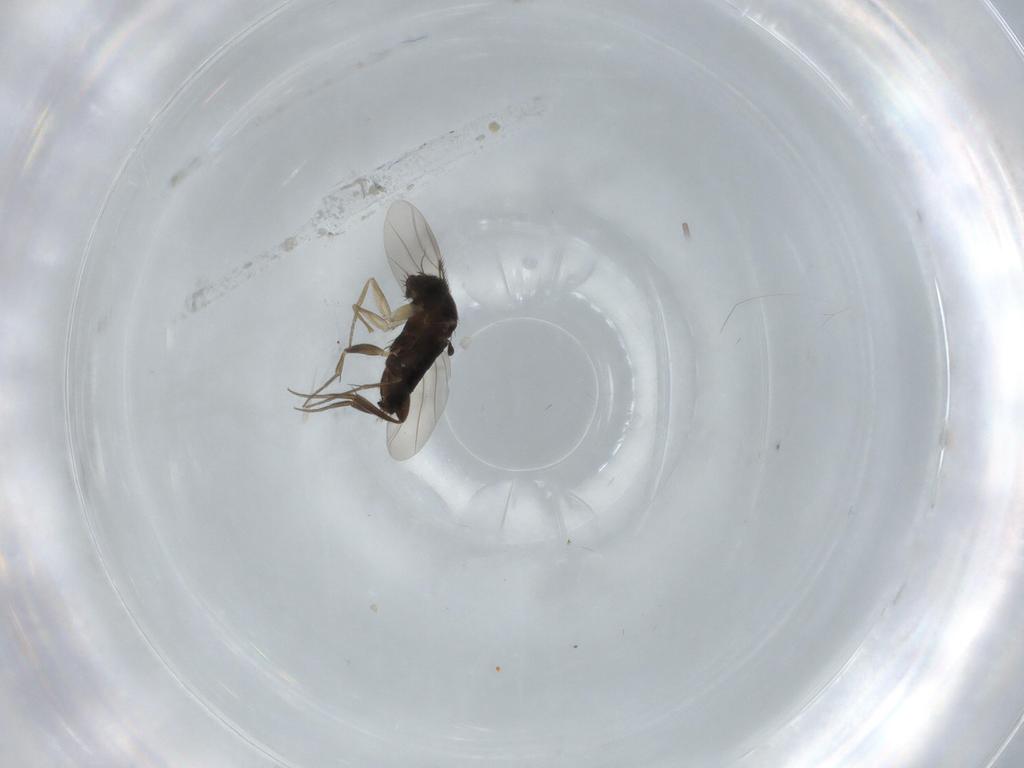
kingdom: Animalia
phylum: Arthropoda
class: Insecta
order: Diptera
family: Phoridae
